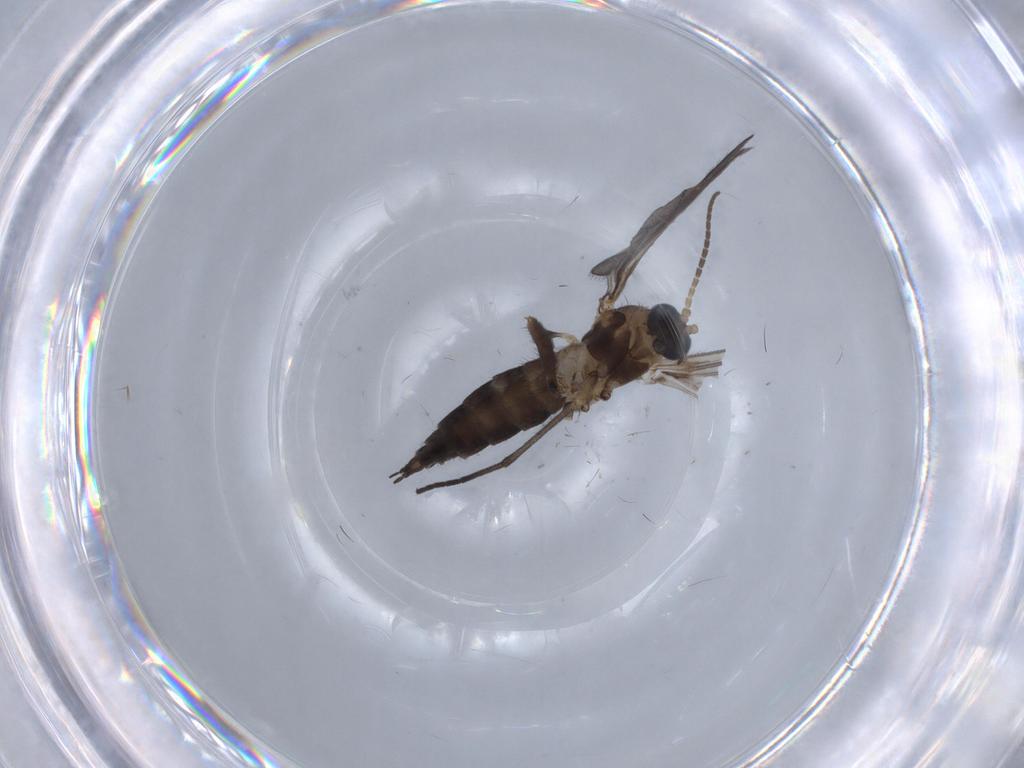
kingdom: Animalia
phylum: Arthropoda
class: Insecta
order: Diptera
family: Sciaridae
